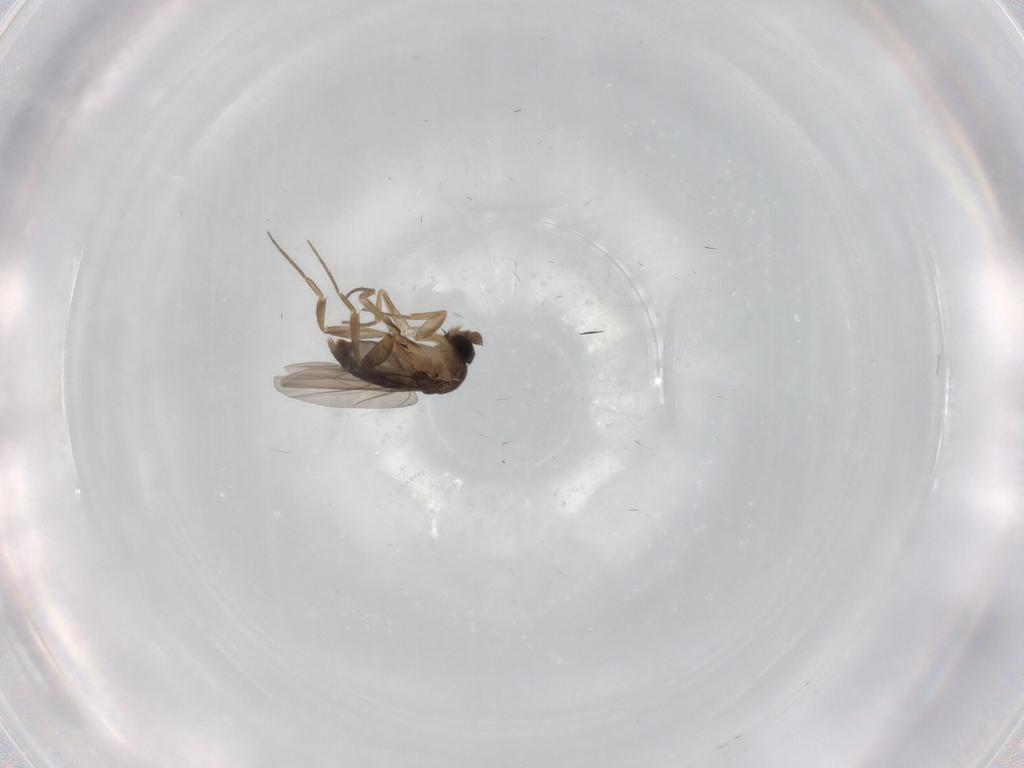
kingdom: Animalia
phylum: Arthropoda
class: Insecta
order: Diptera
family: Phoridae
